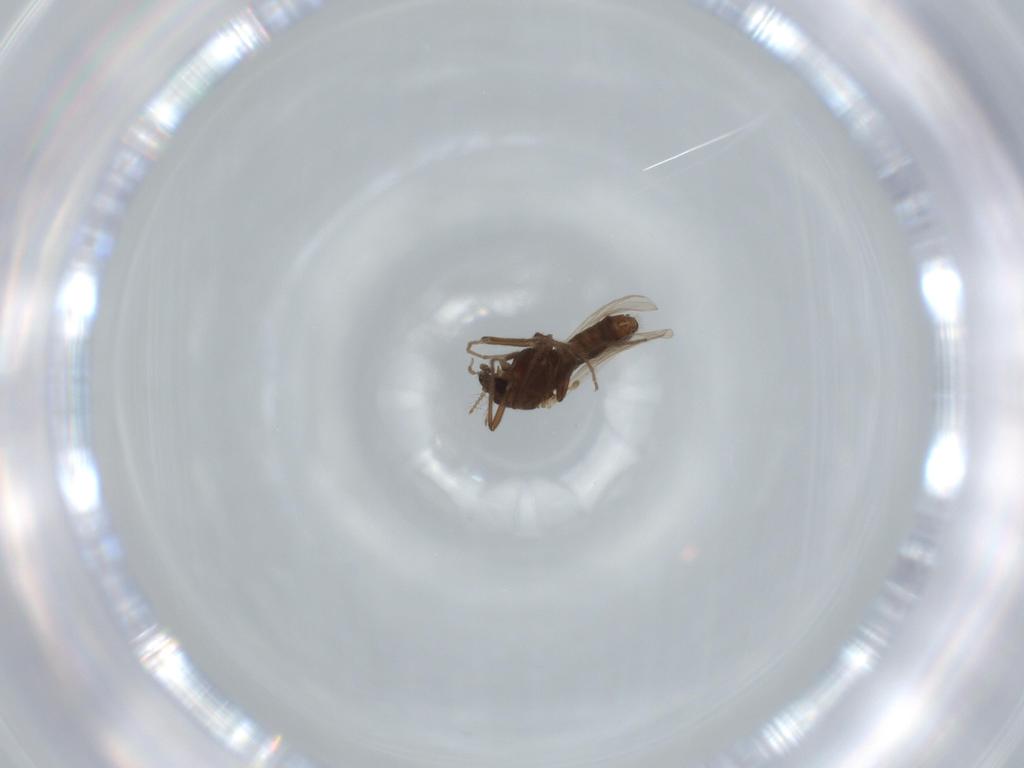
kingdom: Animalia
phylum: Arthropoda
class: Insecta
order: Diptera
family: Chironomidae
